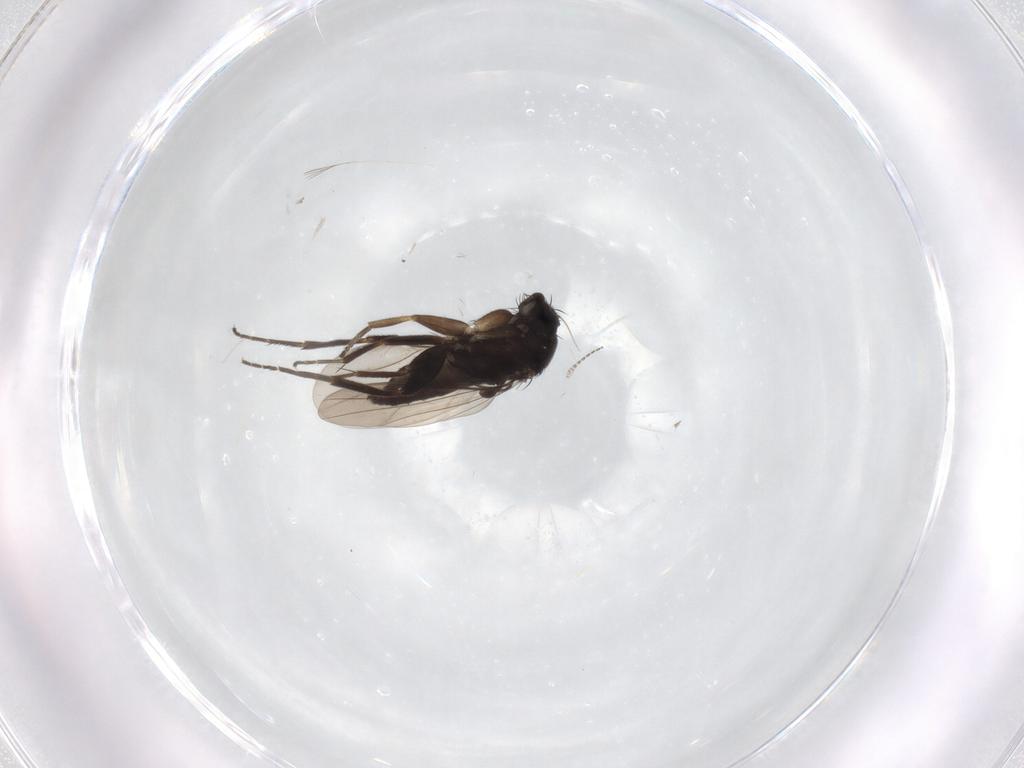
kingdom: Animalia
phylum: Arthropoda
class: Insecta
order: Diptera
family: Phoridae
